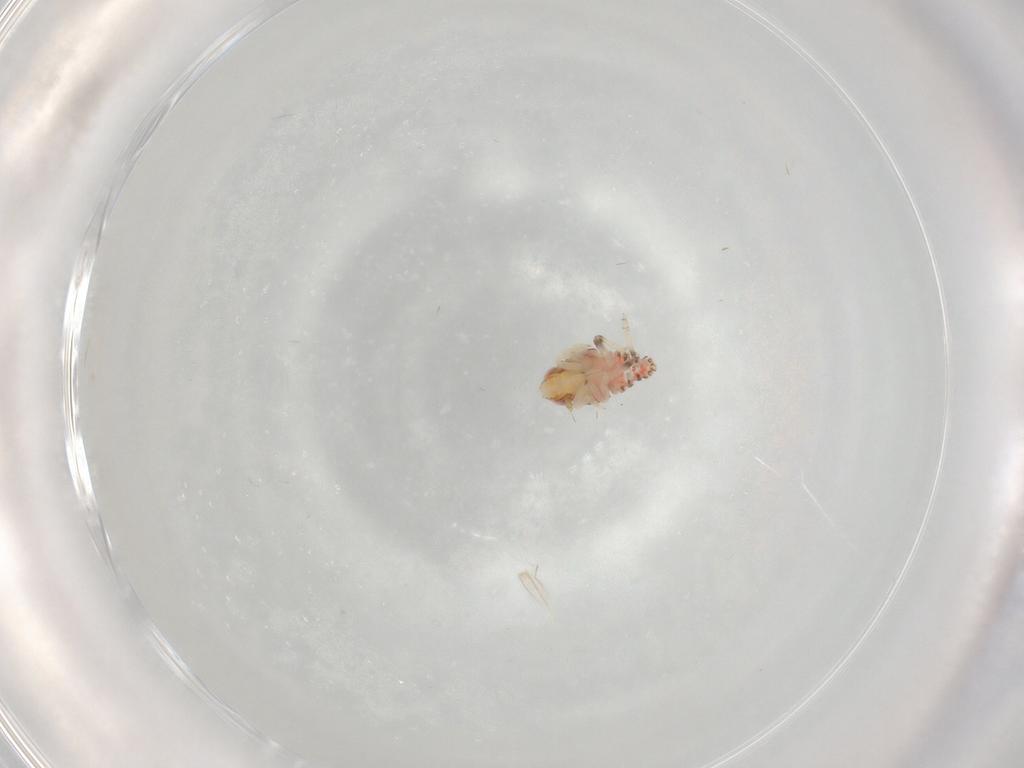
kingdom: Animalia
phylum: Arthropoda
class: Insecta
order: Hemiptera
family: Nogodinidae
